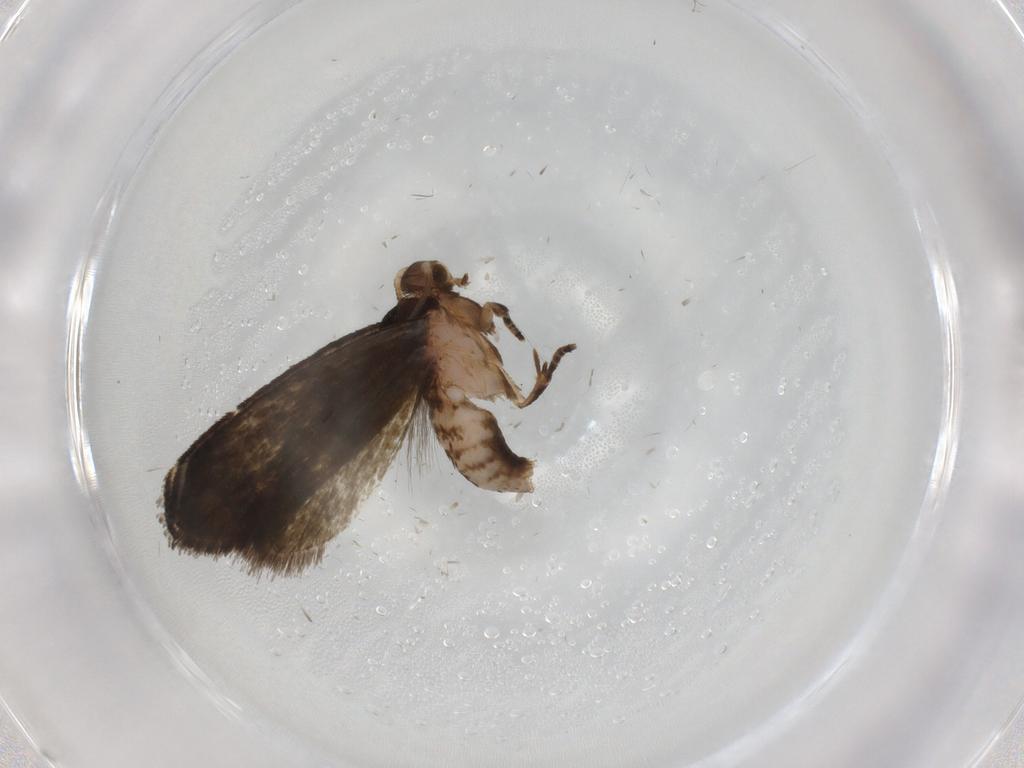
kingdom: Animalia
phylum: Arthropoda
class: Insecta
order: Lepidoptera
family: Tineidae
